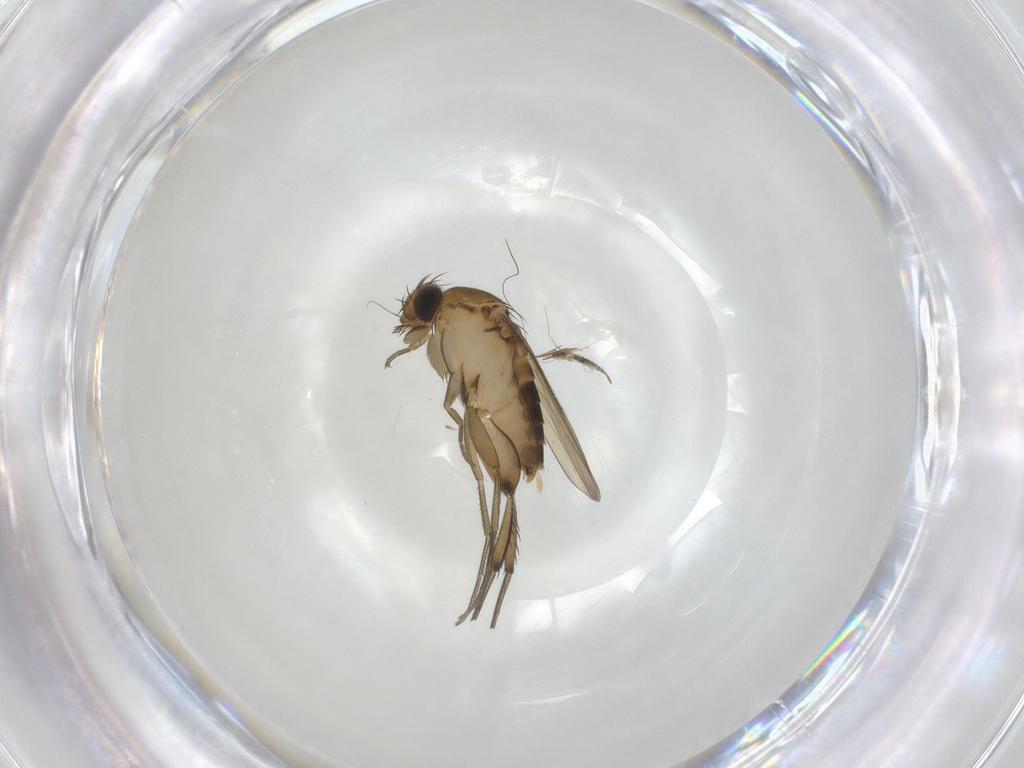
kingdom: Animalia
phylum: Arthropoda
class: Insecta
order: Diptera
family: Phoridae
